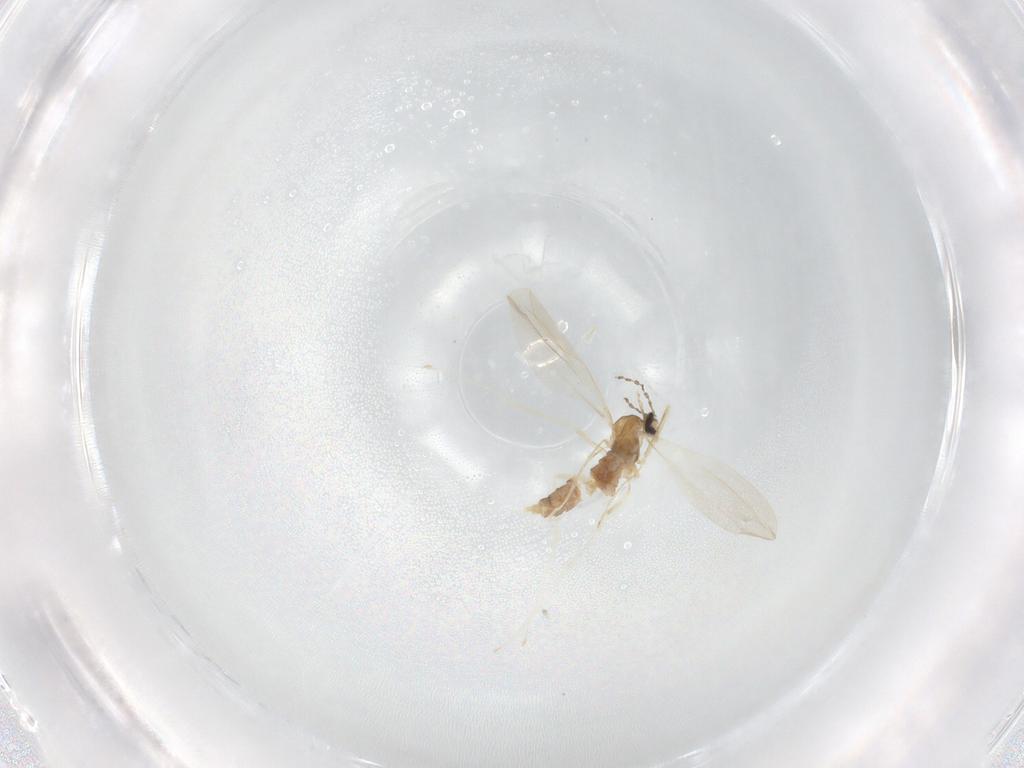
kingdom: Animalia
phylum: Arthropoda
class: Insecta
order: Diptera
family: Cecidomyiidae
